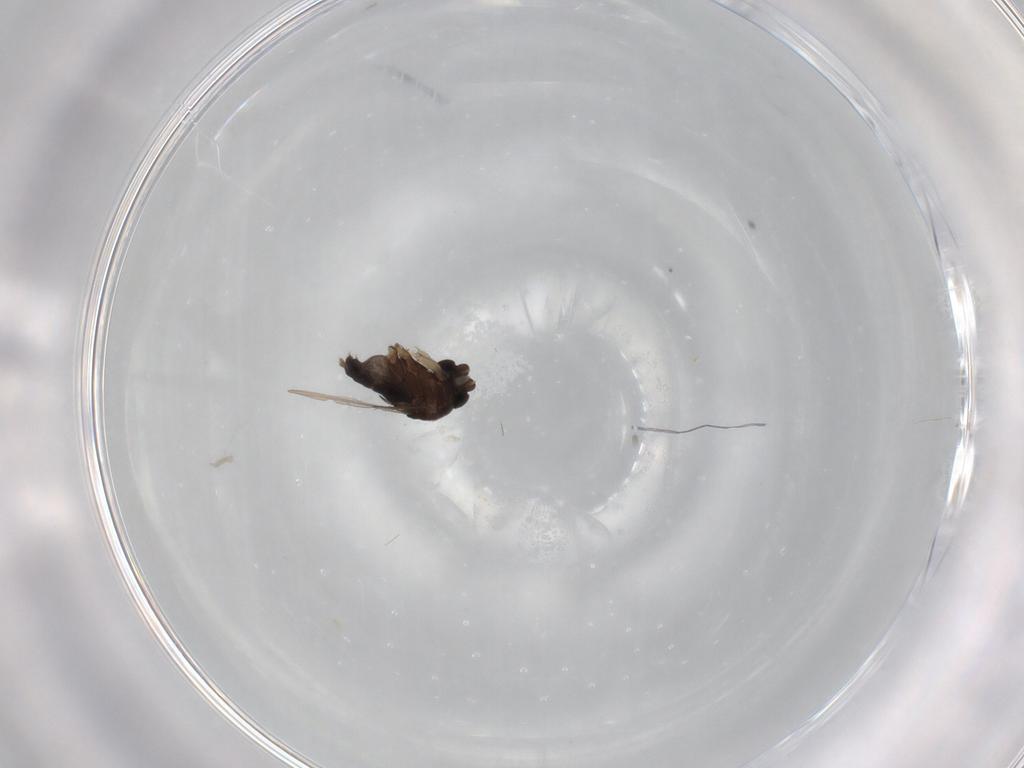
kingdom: Animalia
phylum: Arthropoda
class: Insecta
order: Diptera
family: Phoridae
